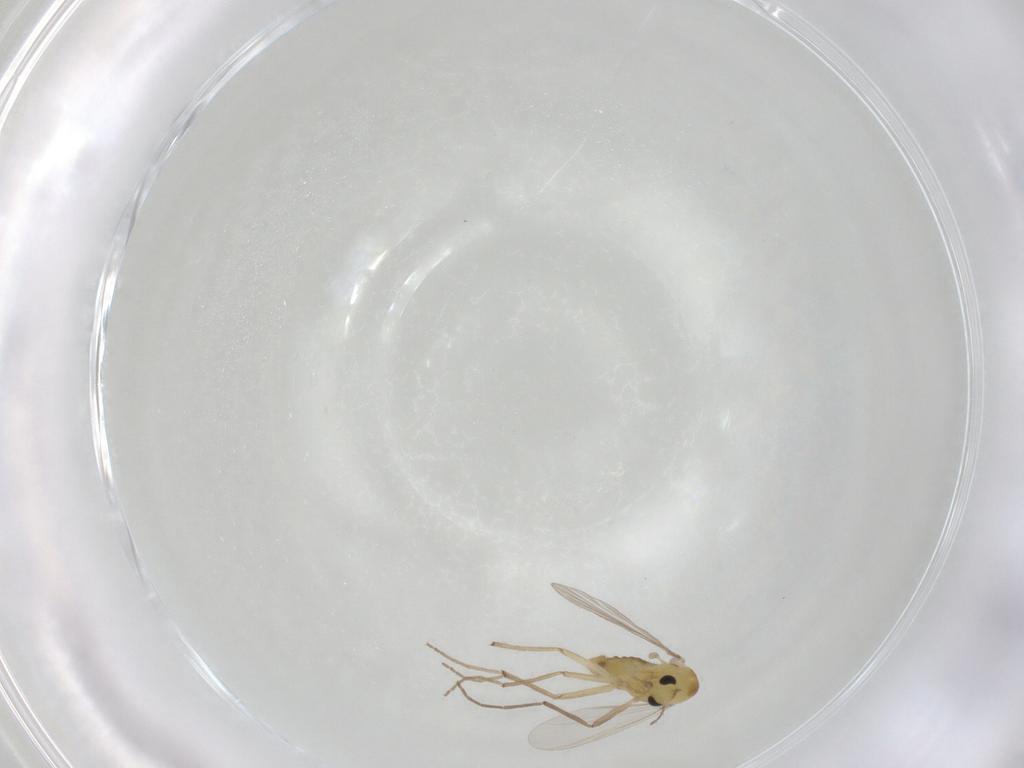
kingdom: Animalia
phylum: Arthropoda
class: Insecta
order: Diptera
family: Chironomidae
